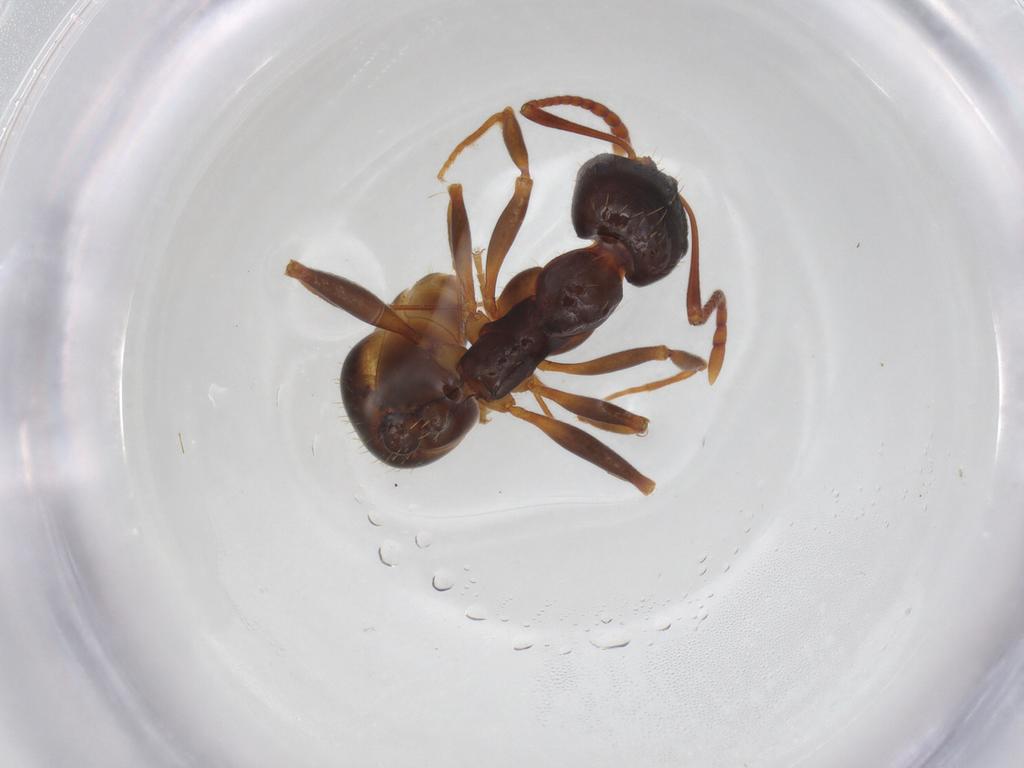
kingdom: Animalia
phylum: Arthropoda
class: Insecta
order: Hymenoptera
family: Formicidae
